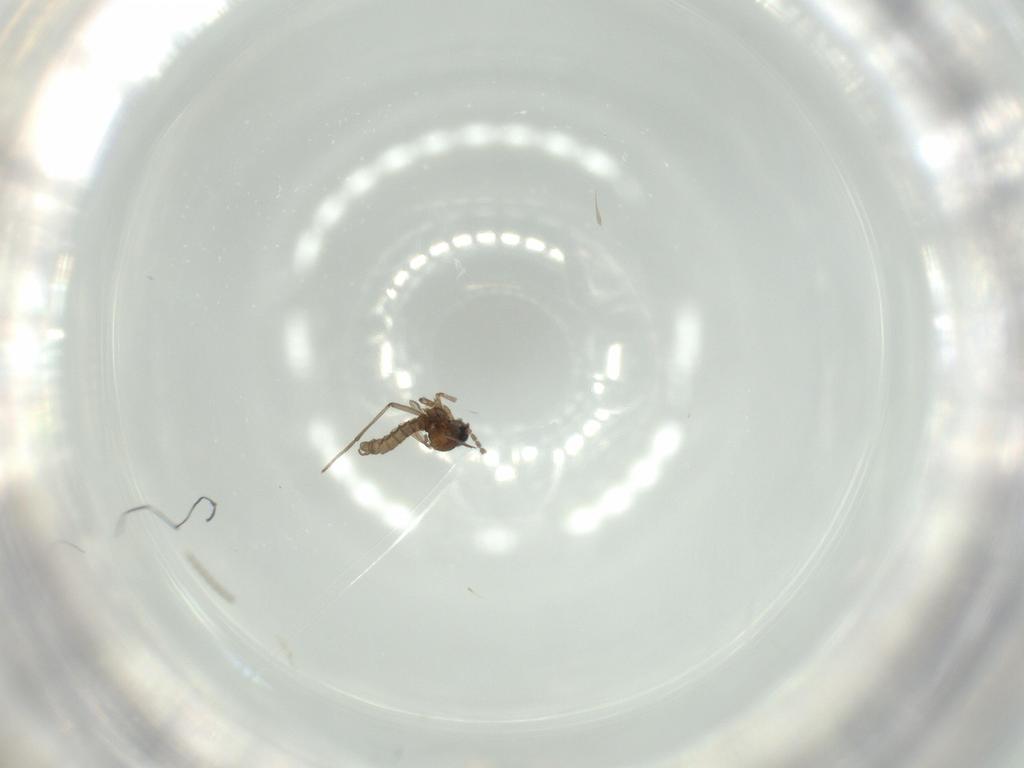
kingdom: Animalia
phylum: Arthropoda
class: Insecta
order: Diptera
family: Sciaridae
